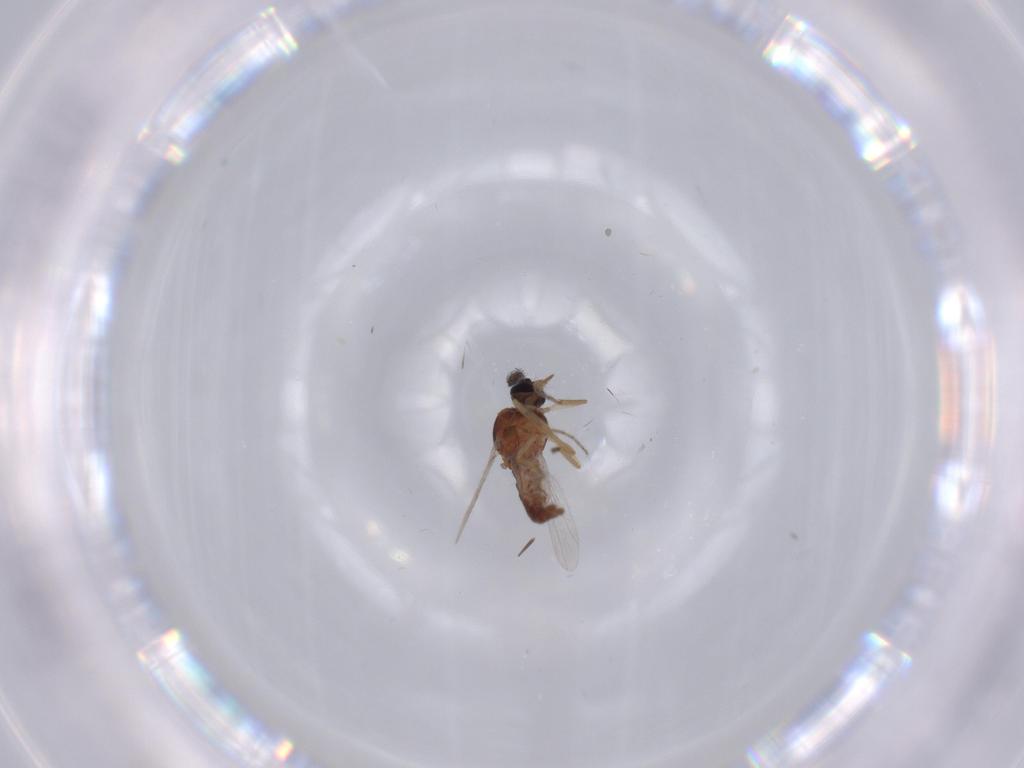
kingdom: Animalia
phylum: Arthropoda
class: Insecta
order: Diptera
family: Ceratopogonidae
